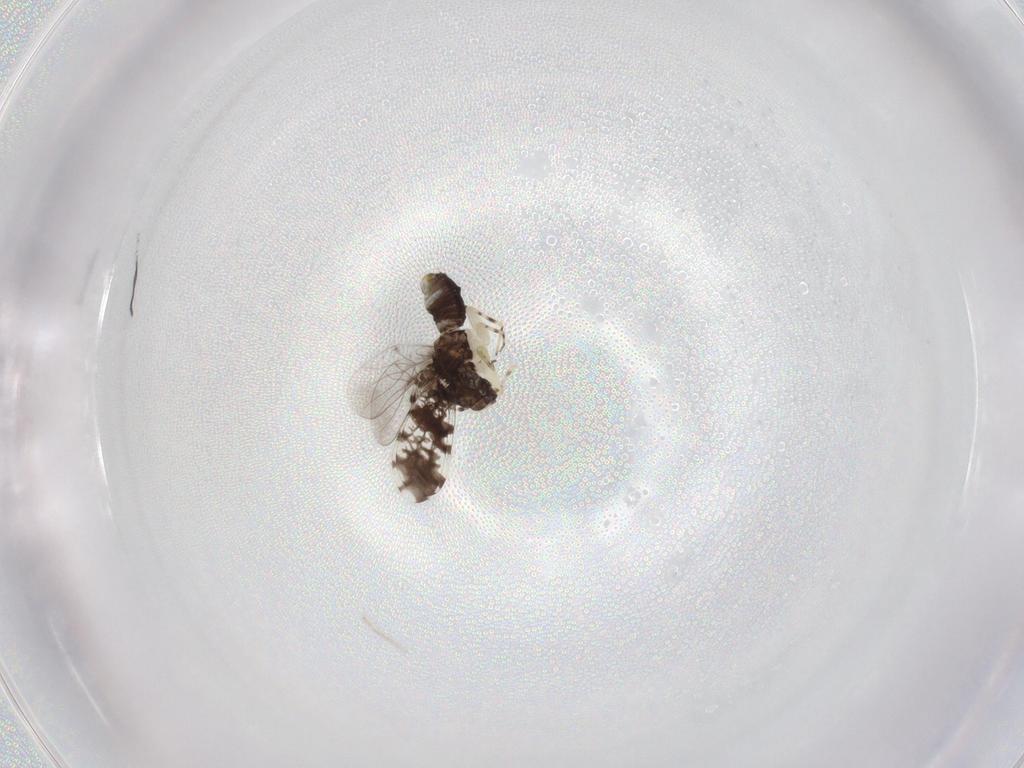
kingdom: Animalia
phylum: Arthropoda
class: Insecta
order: Psocodea
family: Psoquillidae
